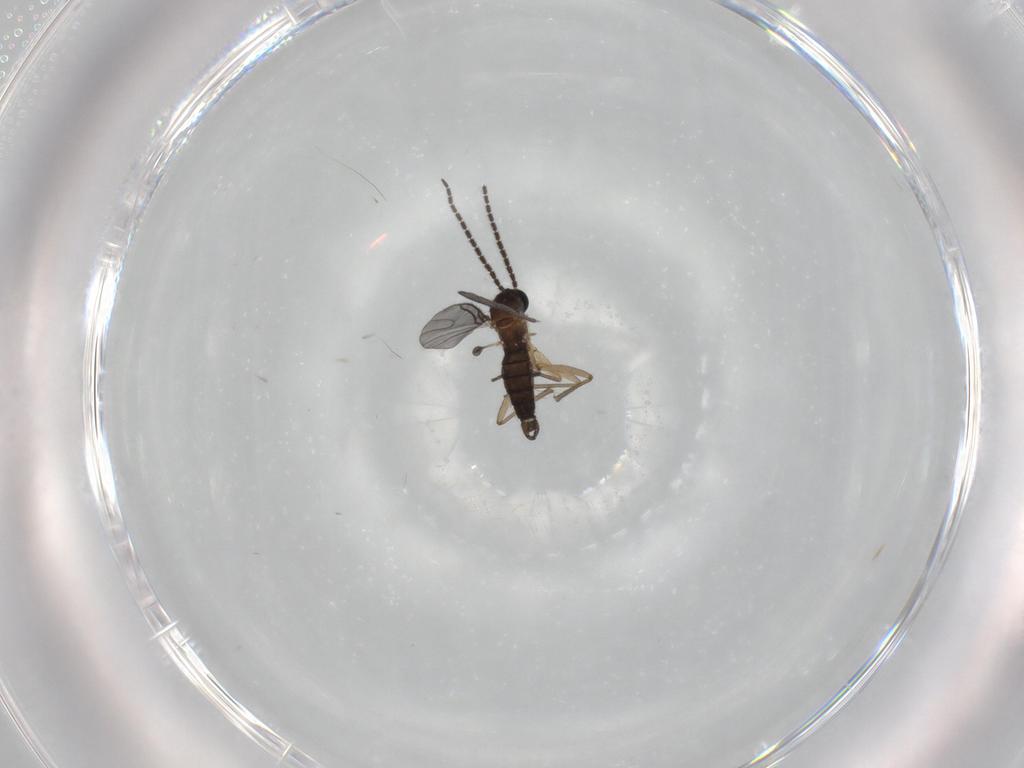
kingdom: Animalia
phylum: Arthropoda
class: Insecta
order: Diptera
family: Sciaridae
